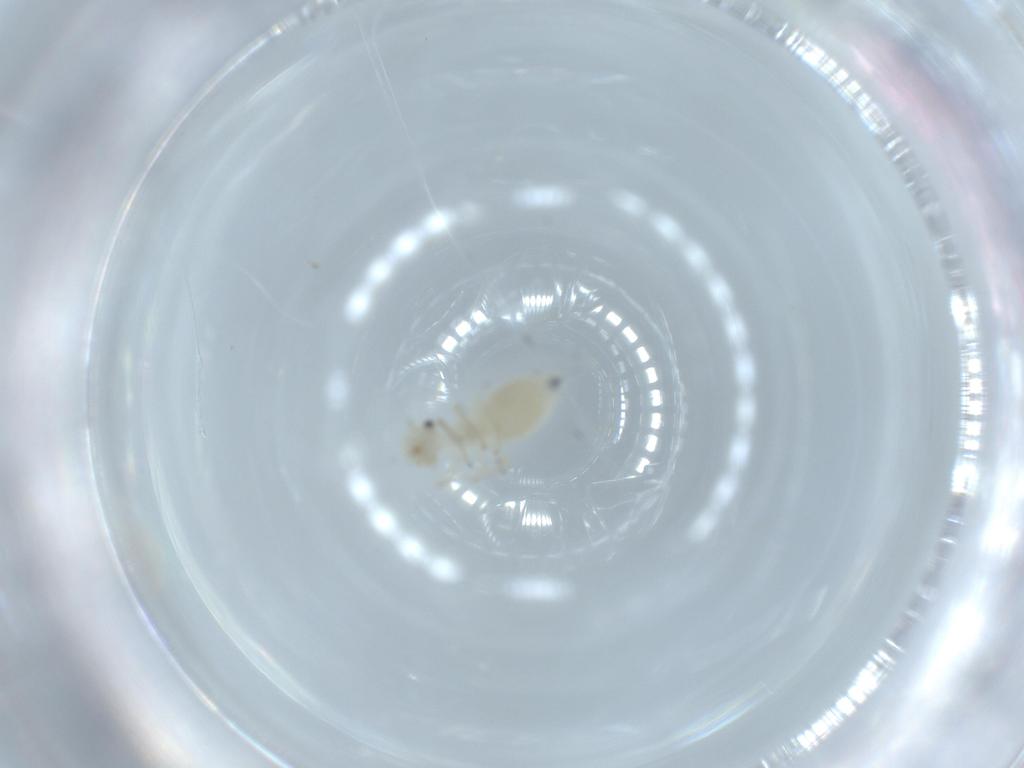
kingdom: Animalia
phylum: Arthropoda
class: Insecta
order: Psocodea
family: Caeciliusidae
